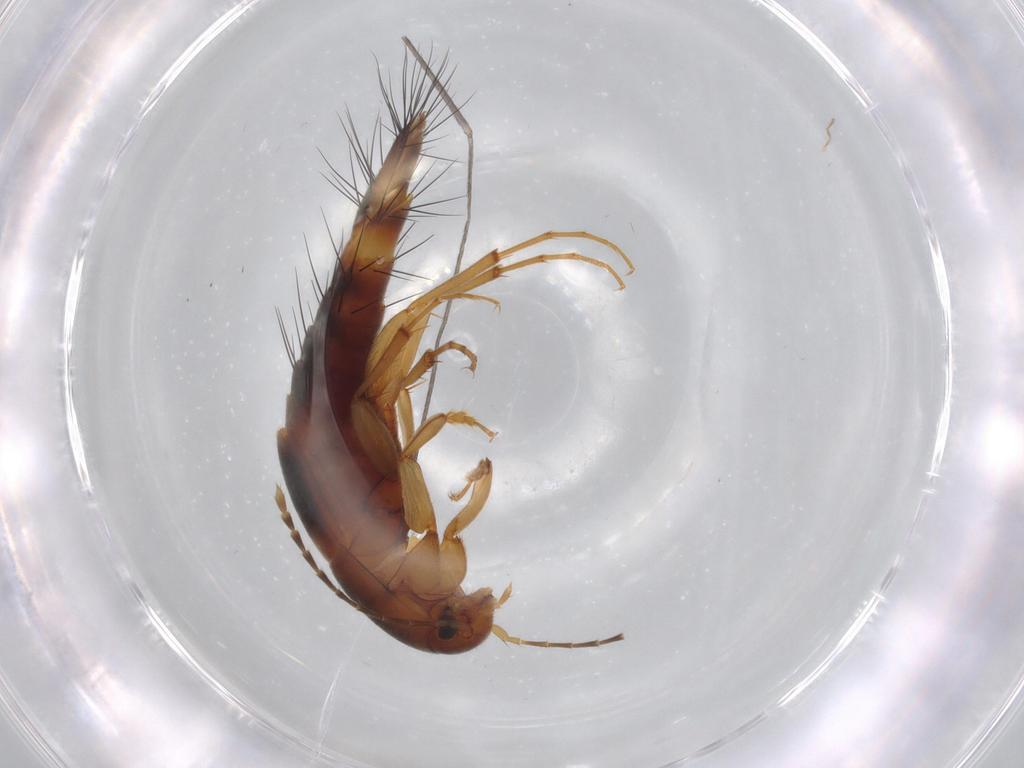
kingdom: Animalia
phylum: Arthropoda
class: Insecta
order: Coleoptera
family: Staphylinidae
